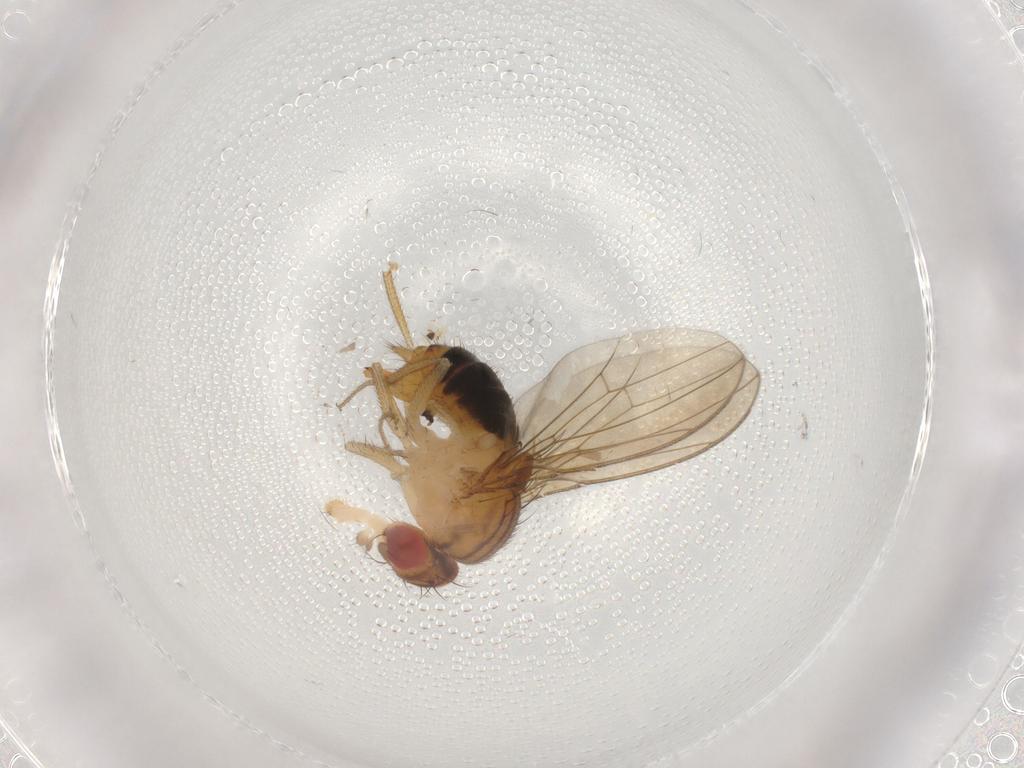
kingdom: Animalia
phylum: Arthropoda
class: Insecta
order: Diptera
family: Drosophilidae
